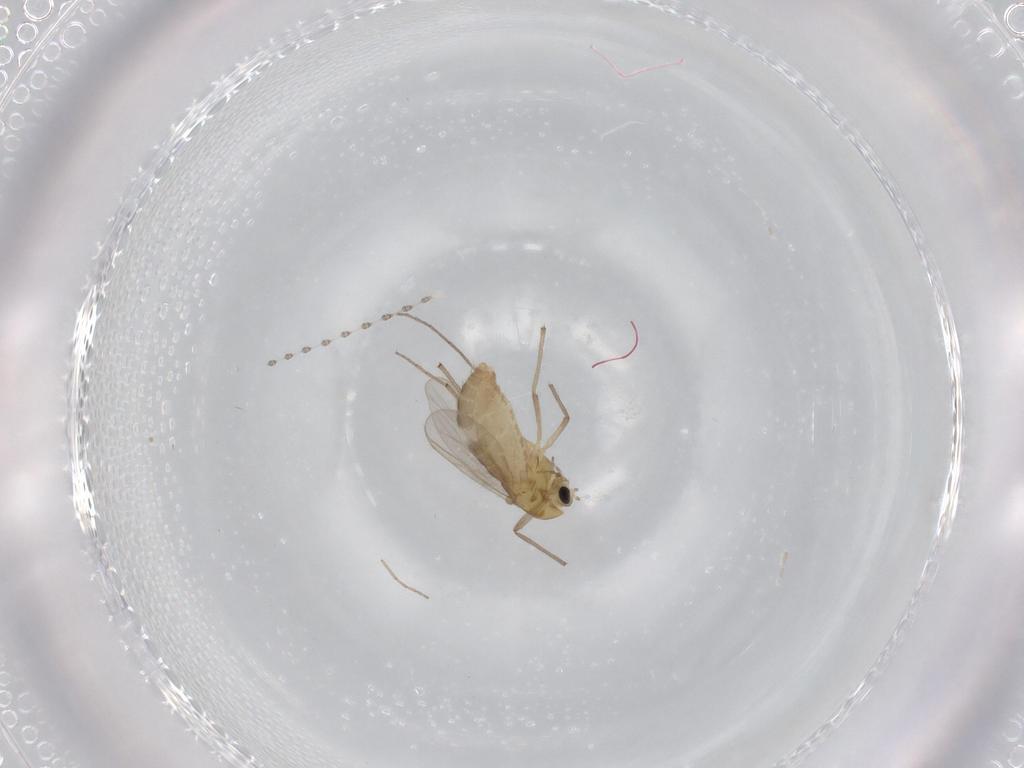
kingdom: Animalia
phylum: Arthropoda
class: Insecta
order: Diptera
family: Chironomidae
